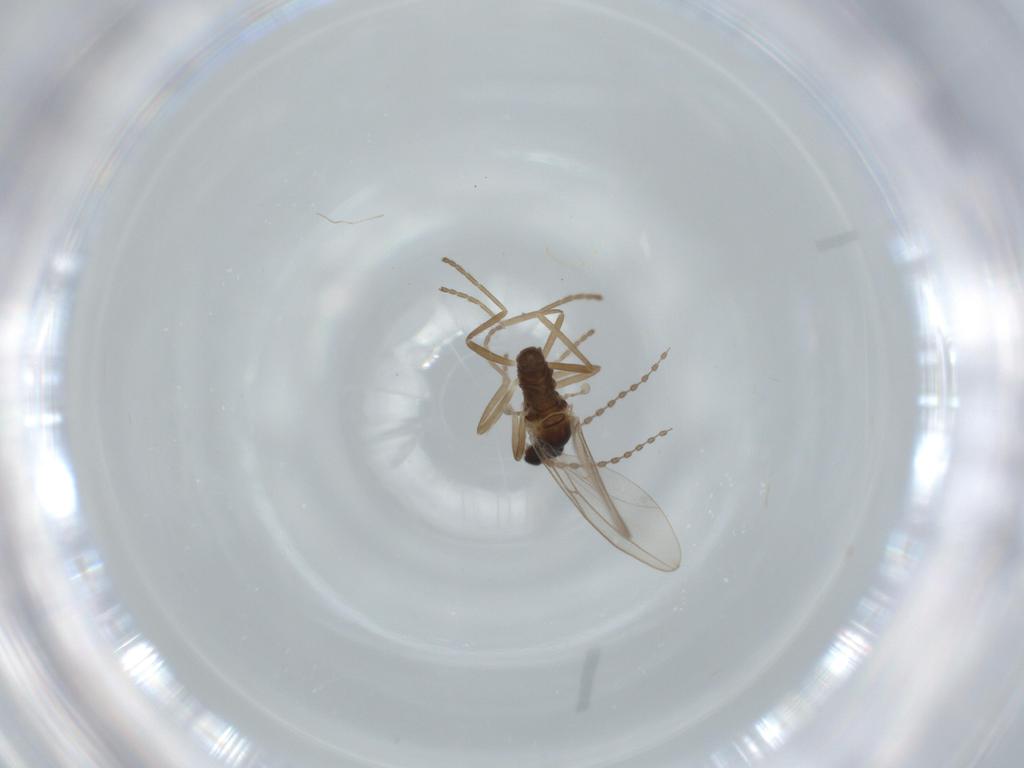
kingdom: Animalia
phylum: Arthropoda
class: Insecta
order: Diptera
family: Cecidomyiidae
